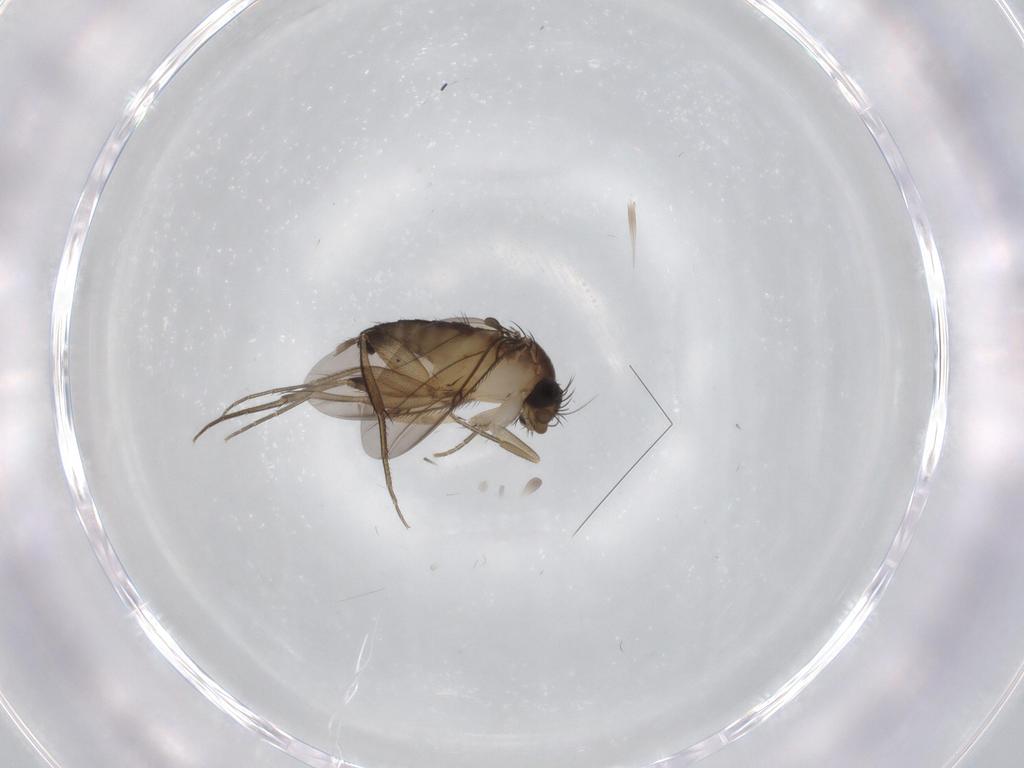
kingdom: Animalia
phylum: Arthropoda
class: Insecta
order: Diptera
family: Sciaridae
